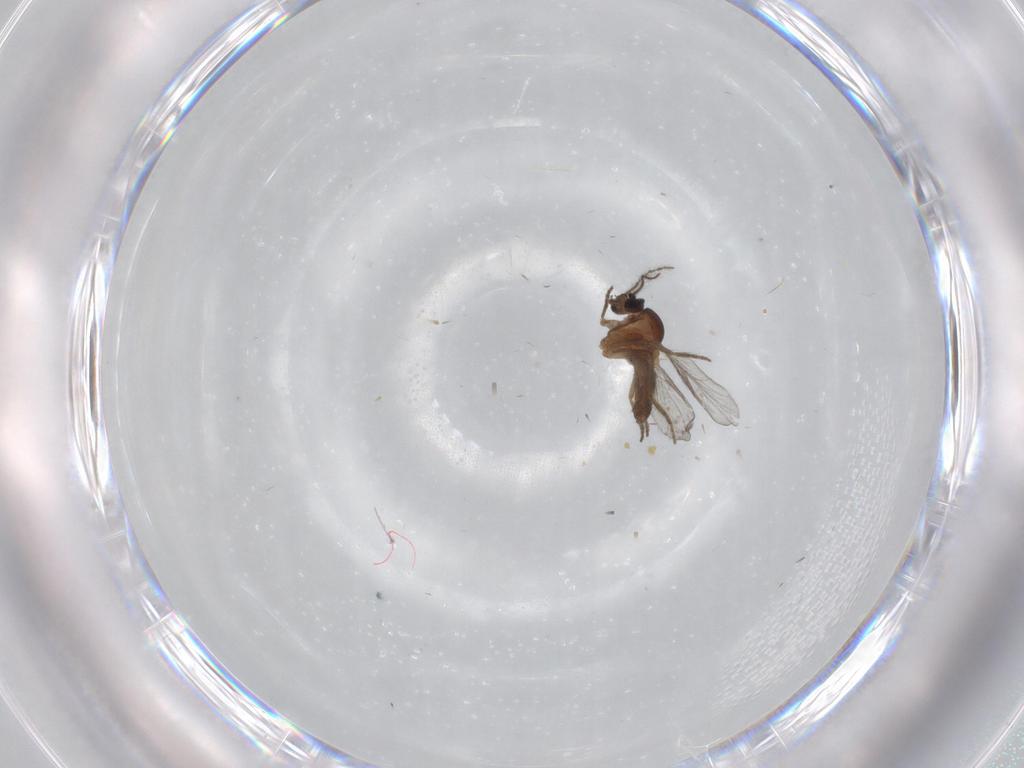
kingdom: Animalia
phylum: Arthropoda
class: Insecta
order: Diptera
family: Ceratopogonidae
